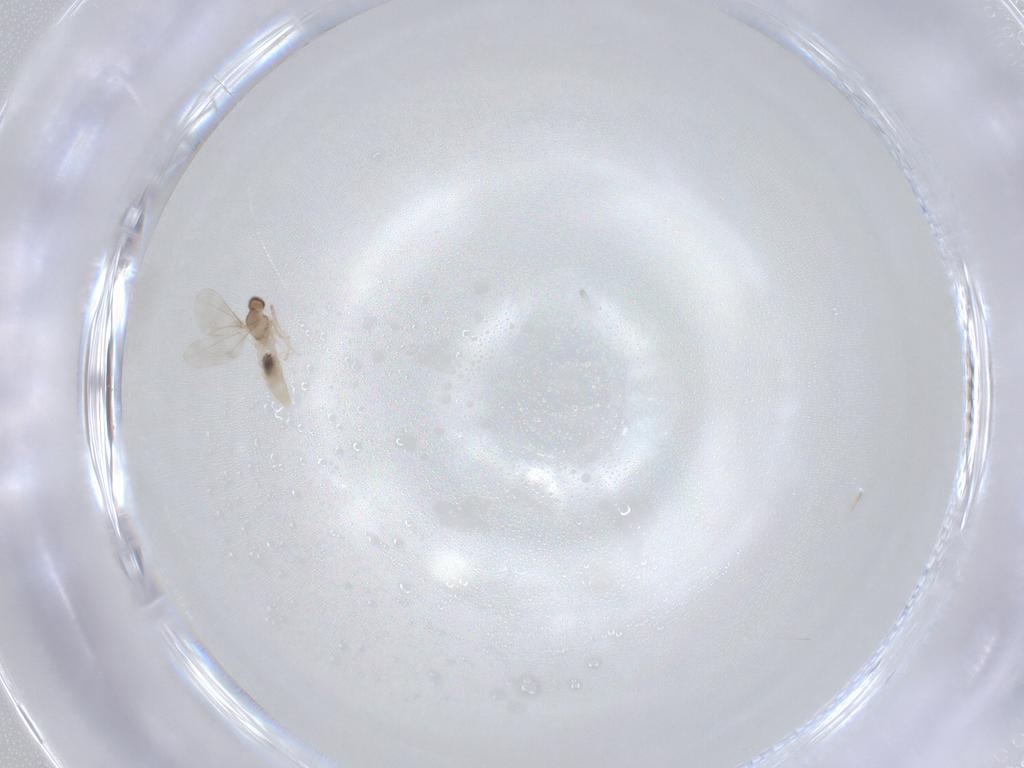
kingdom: Animalia
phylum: Arthropoda
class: Insecta
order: Diptera
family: Cecidomyiidae
